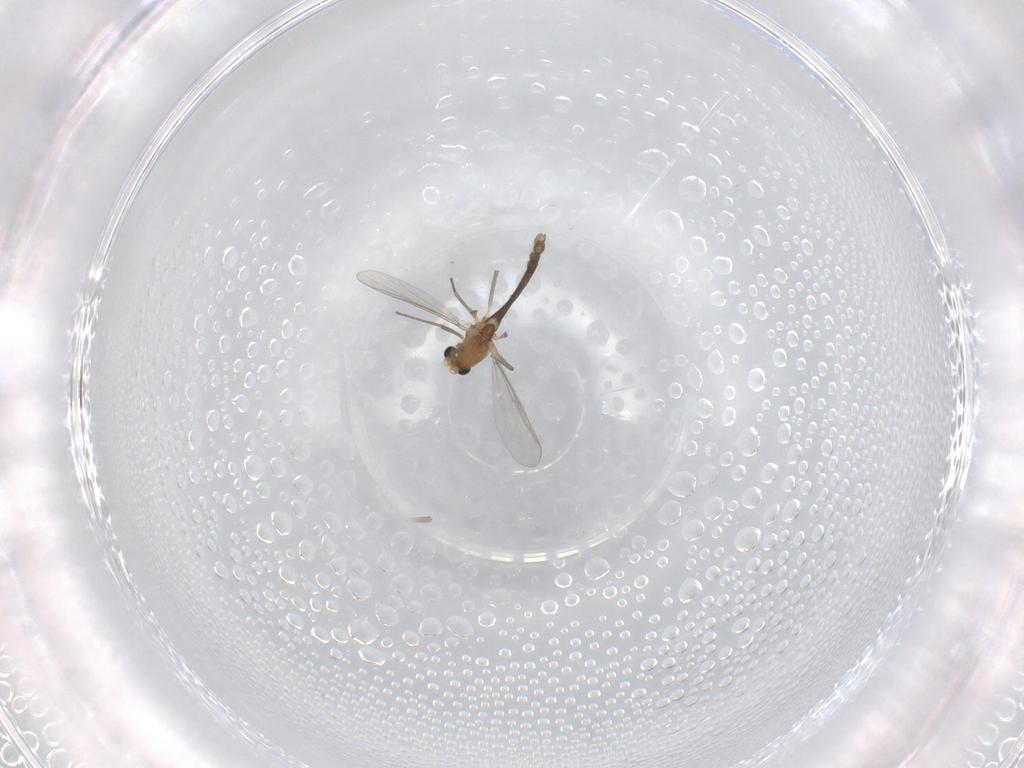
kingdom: Animalia
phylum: Arthropoda
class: Insecta
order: Diptera
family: Chironomidae
